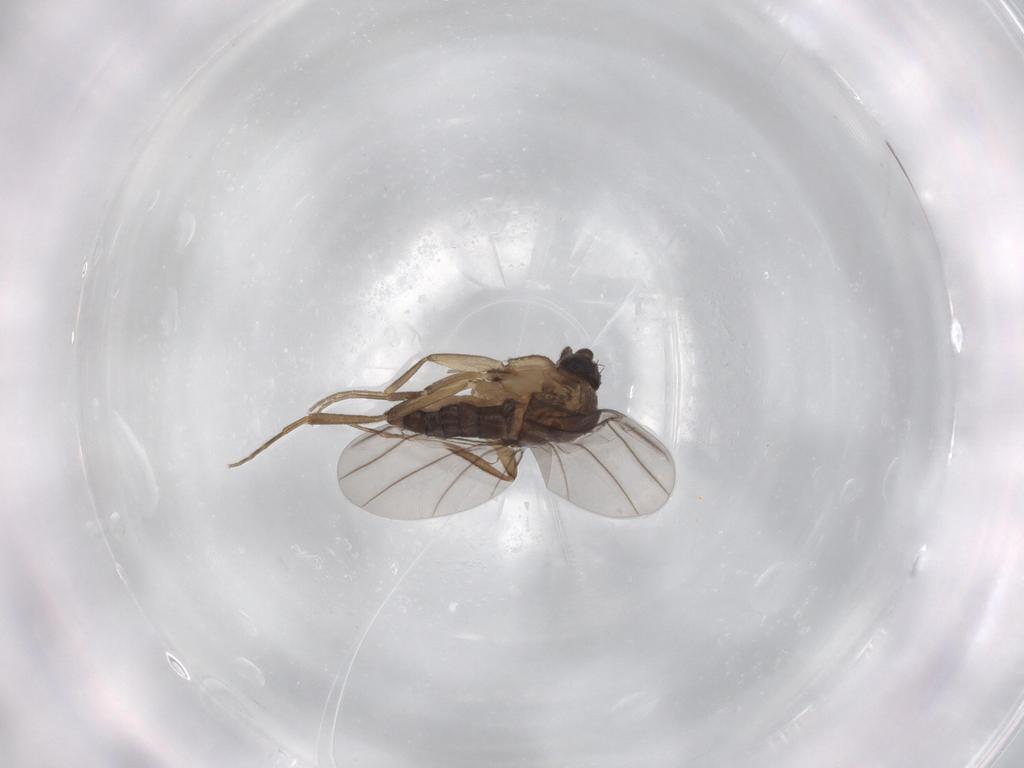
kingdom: Animalia
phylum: Arthropoda
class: Insecta
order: Diptera
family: Phoridae
